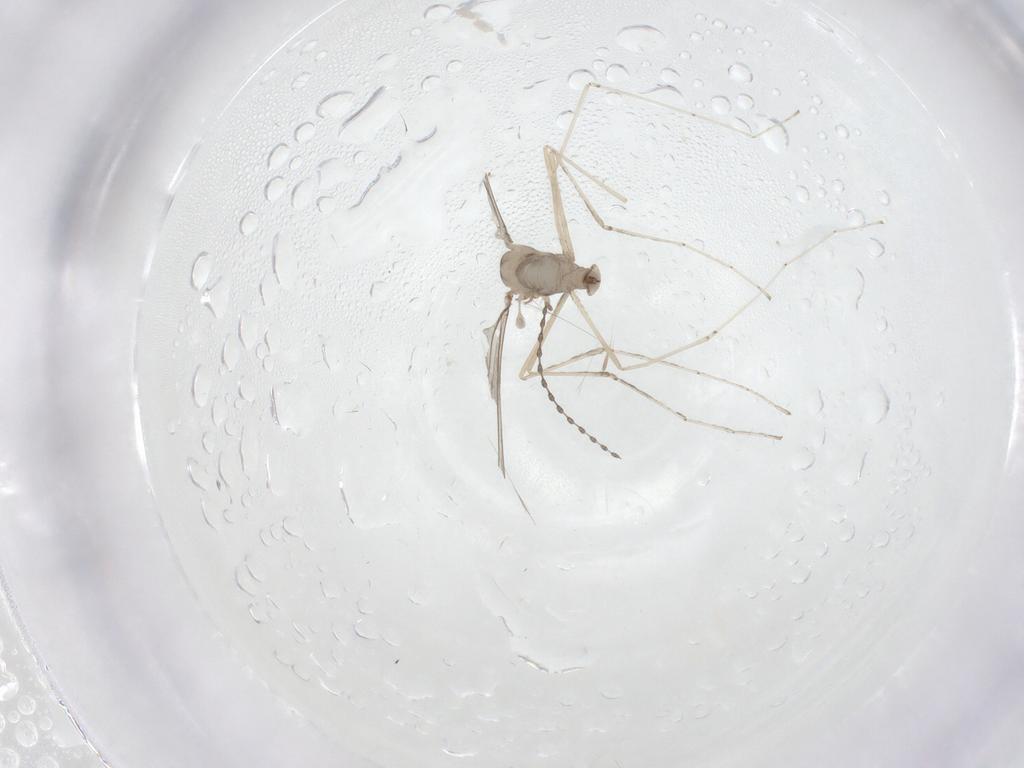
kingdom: Animalia
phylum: Arthropoda
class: Insecta
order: Diptera
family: Cecidomyiidae
